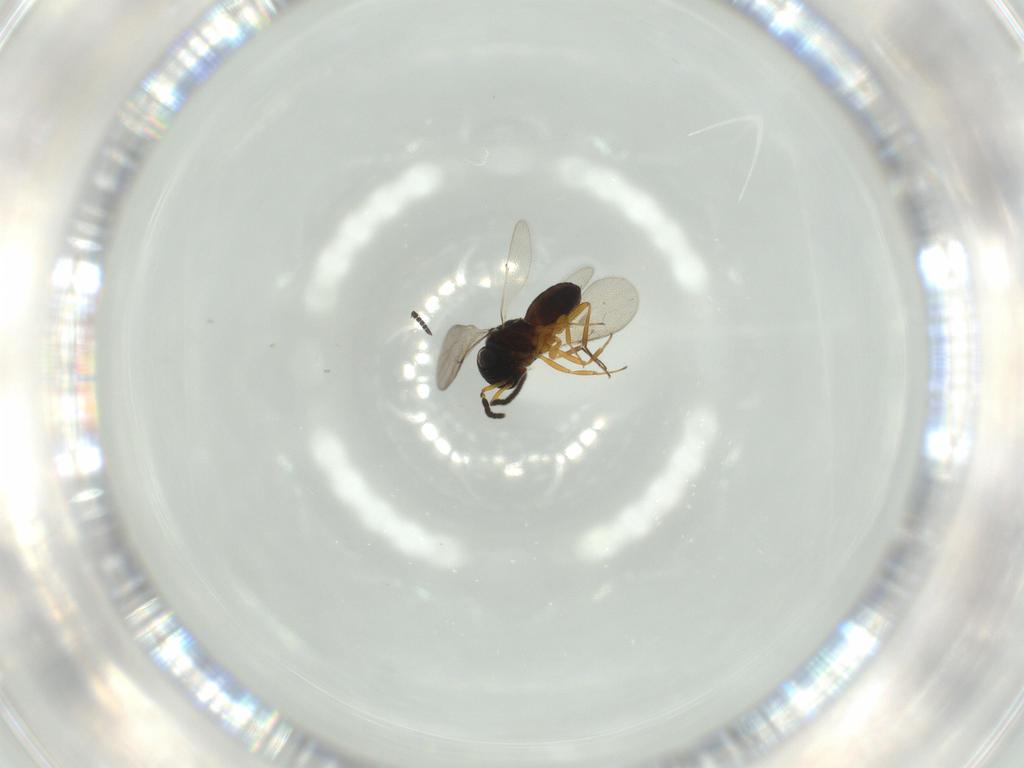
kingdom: Animalia
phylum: Arthropoda
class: Insecta
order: Hymenoptera
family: Scelionidae
